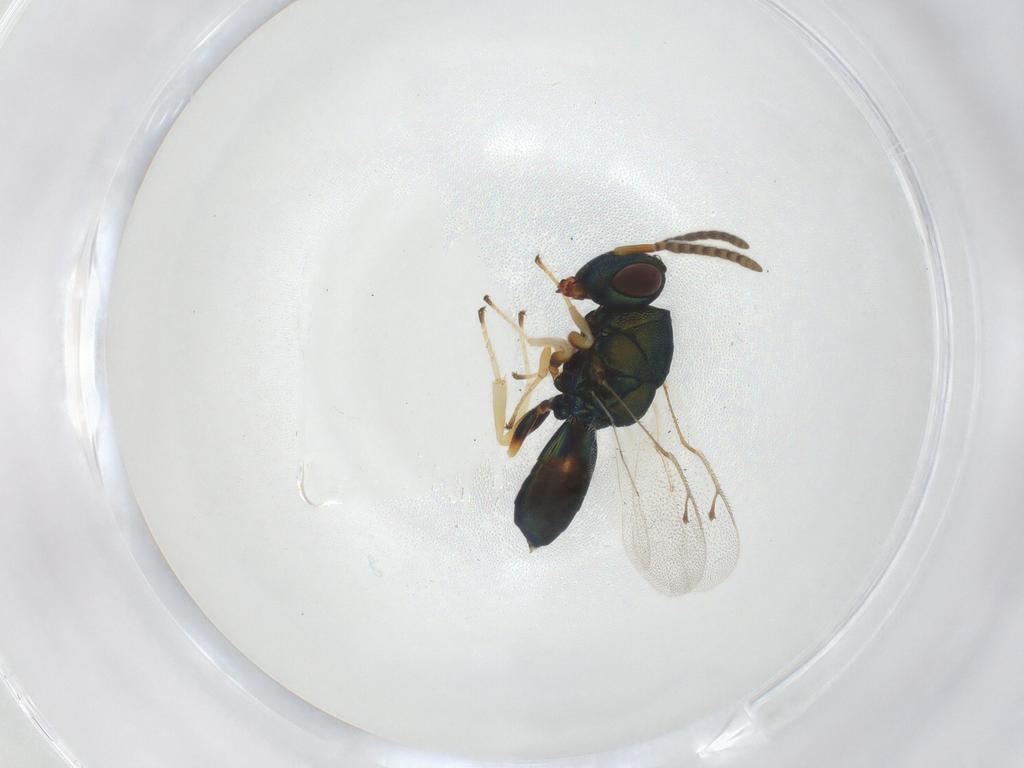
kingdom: Animalia
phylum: Arthropoda
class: Insecta
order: Hymenoptera
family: Pteromalidae
